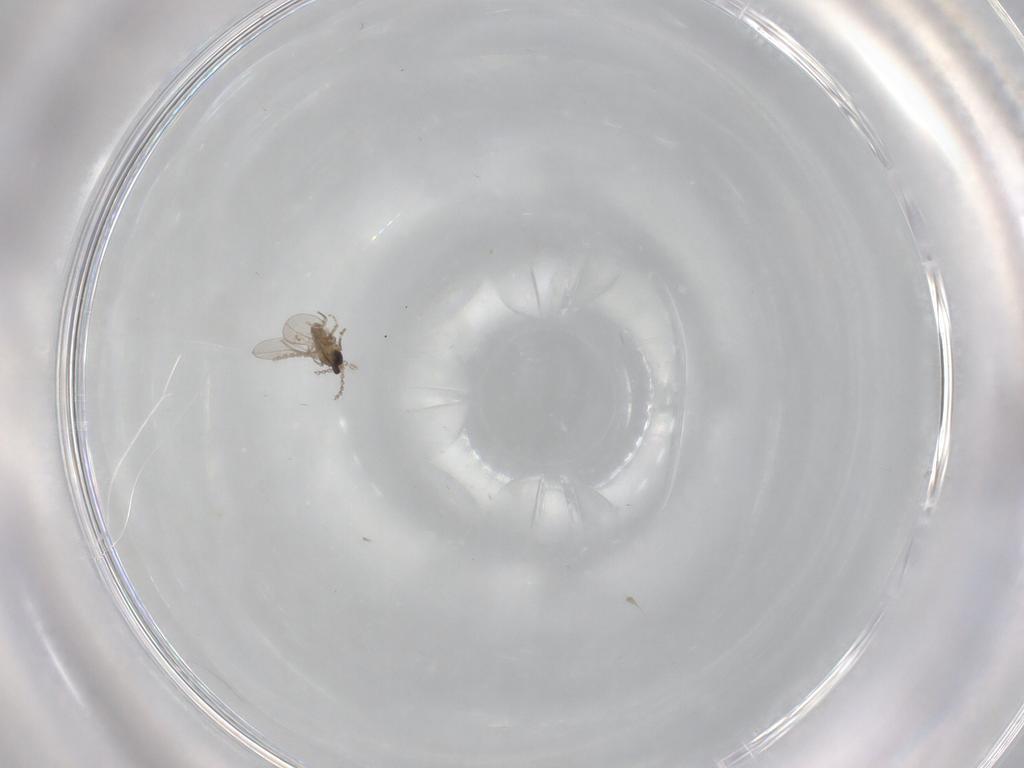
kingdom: Animalia
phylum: Arthropoda
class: Insecta
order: Diptera
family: Cecidomyiidae
